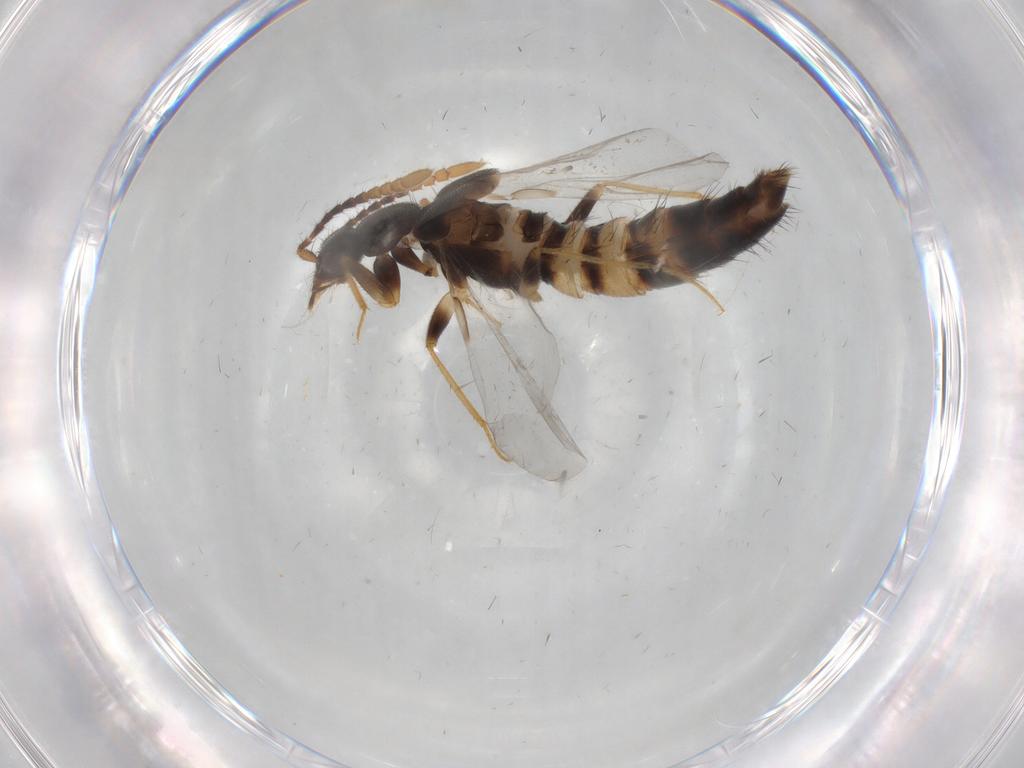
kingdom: Animalia
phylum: Arthropoda
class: Insecta
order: Coleoptera
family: Staphylinidae
